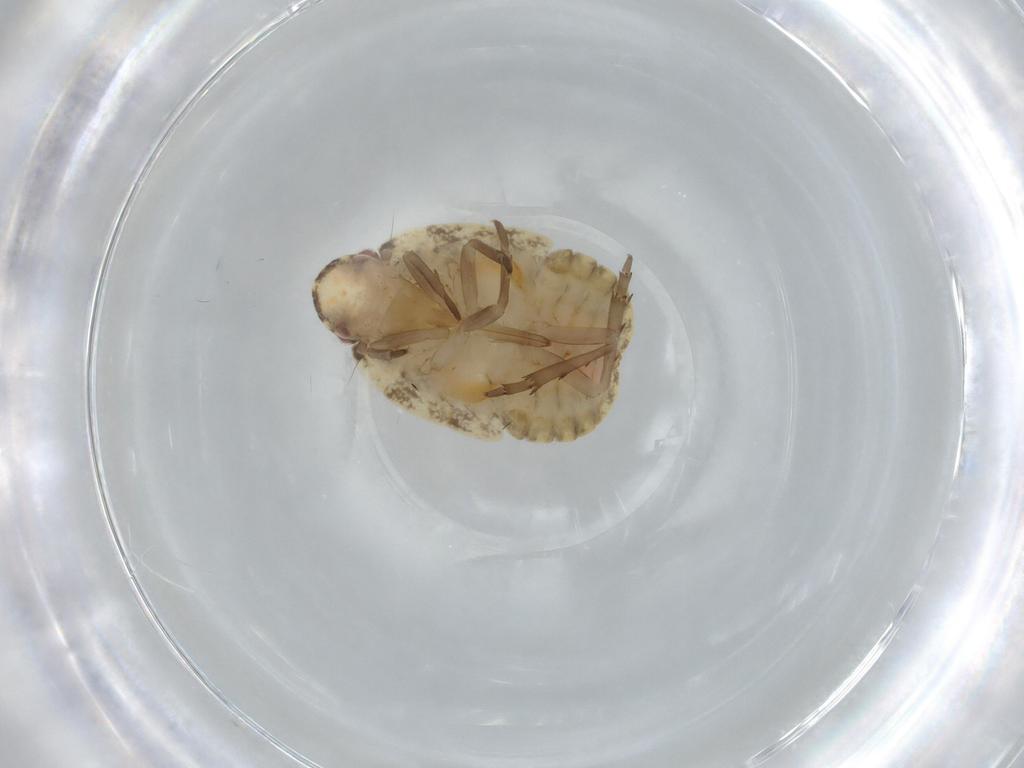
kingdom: Animalia
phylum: Arthropoda
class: Insecta
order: Hemiptera
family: Flatidae
